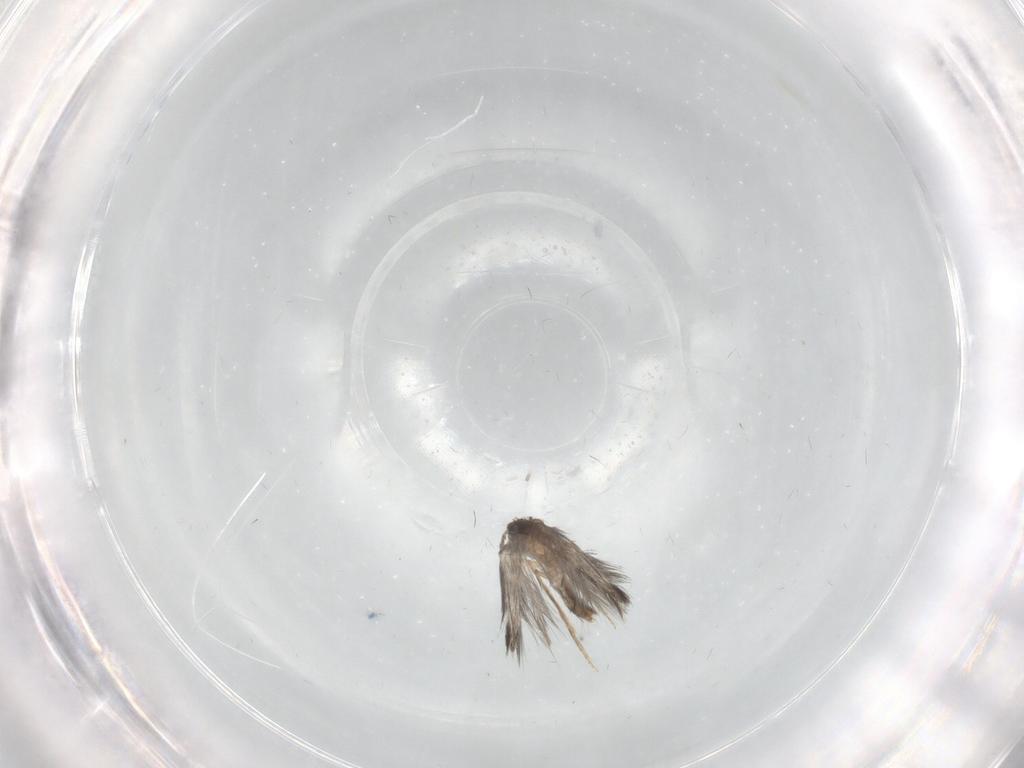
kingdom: Animalia
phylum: Arthropoda
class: Insecta
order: Trichoptera
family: Hydroptilidae
